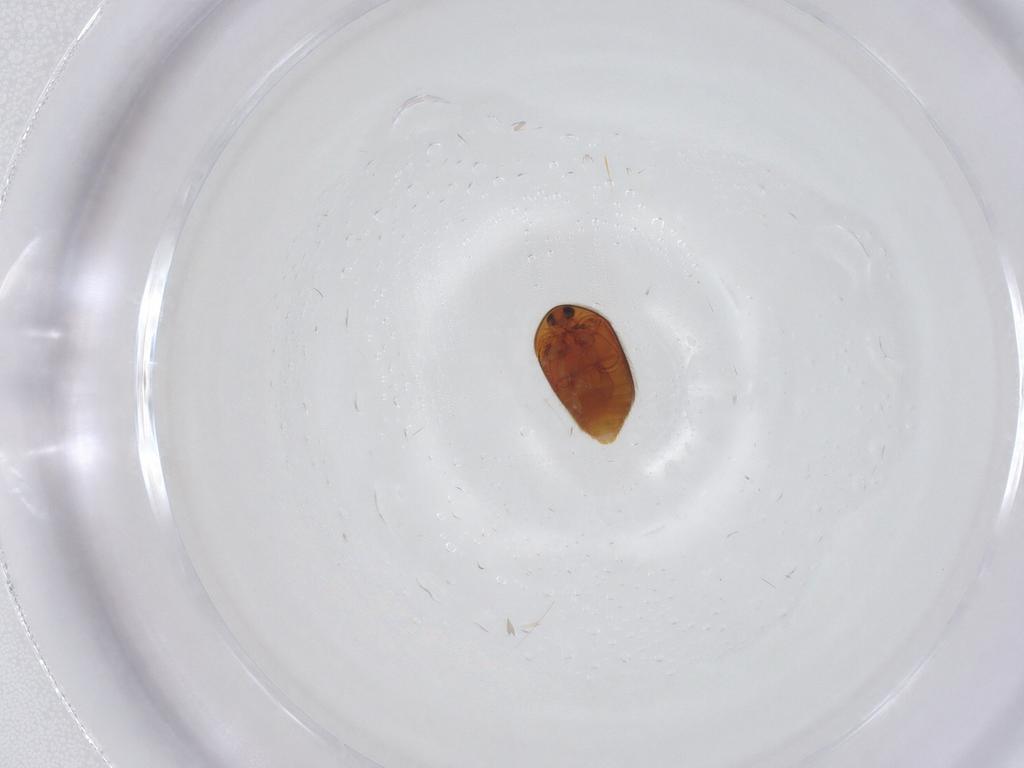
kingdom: Animalia
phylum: Arthropoda
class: Insecta
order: Coleoptera
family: Corylophidae
